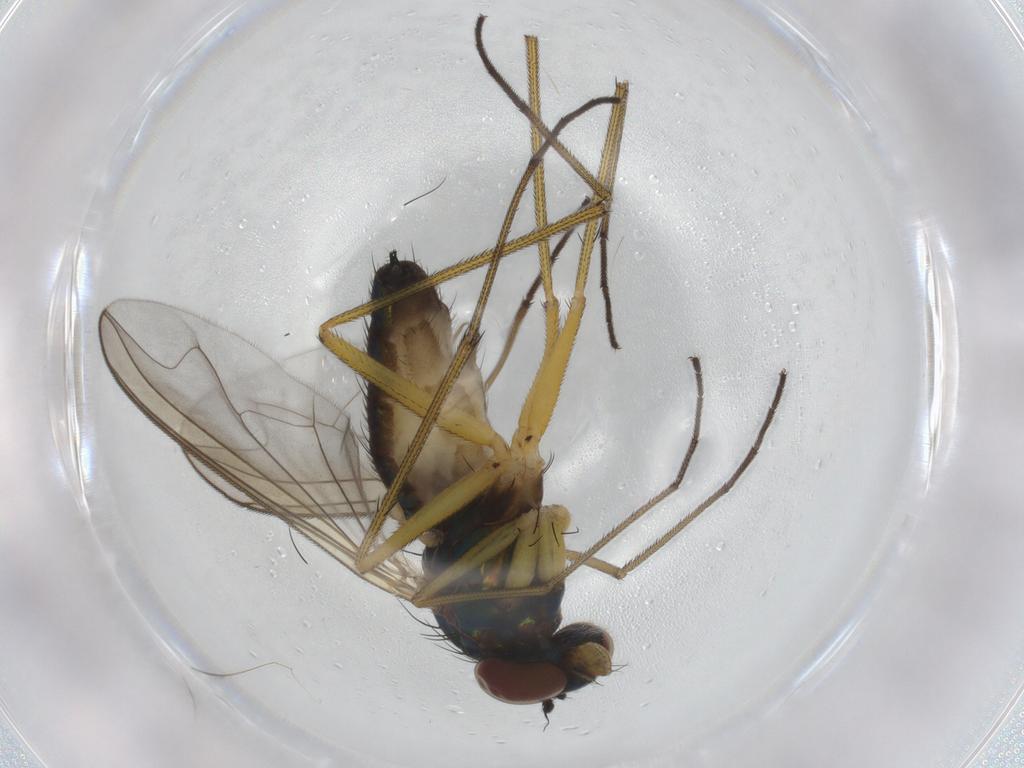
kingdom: Animalia
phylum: Arthropoda
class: Insecta
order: Diptera
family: Dolichopodidae
